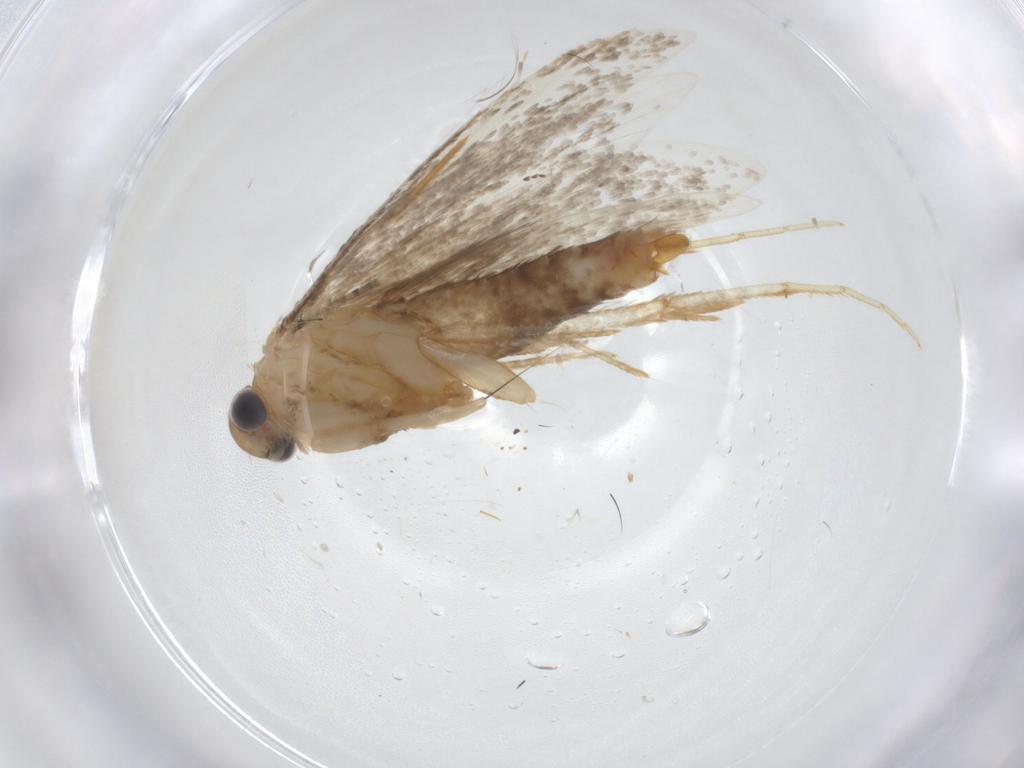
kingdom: Animalia
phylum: Arthropoda
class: Insecta
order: Lepidoptera
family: Tineidae
